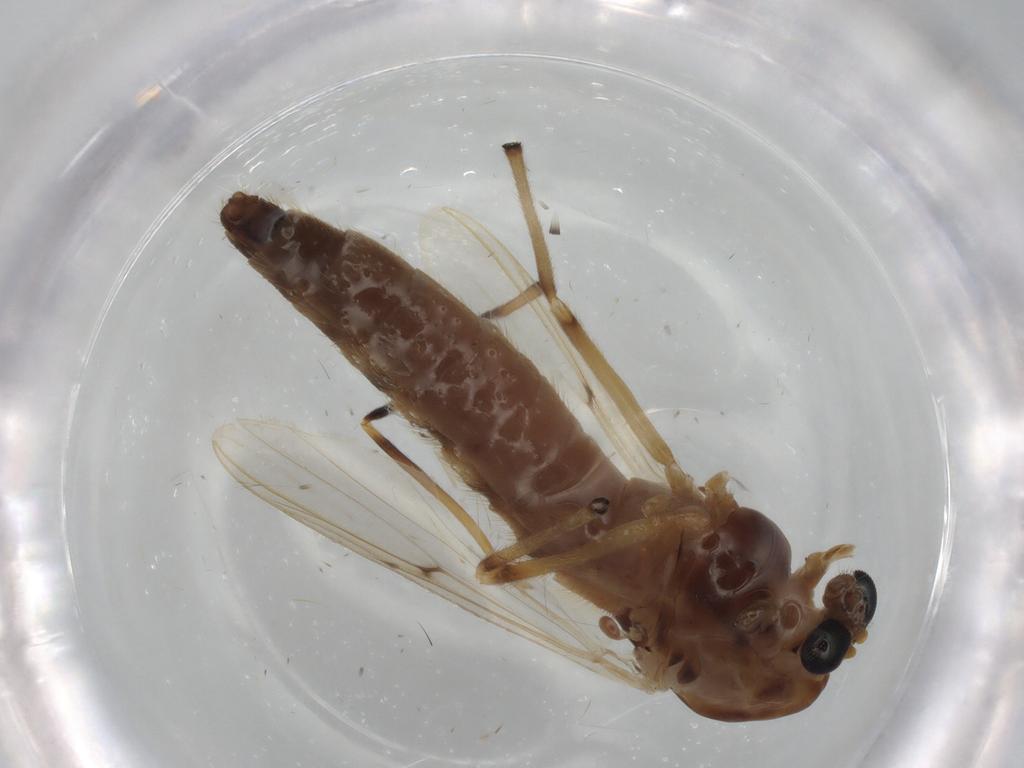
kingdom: Animalia
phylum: Arthropoda
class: Insecta
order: Diptera
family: Chironomidae
